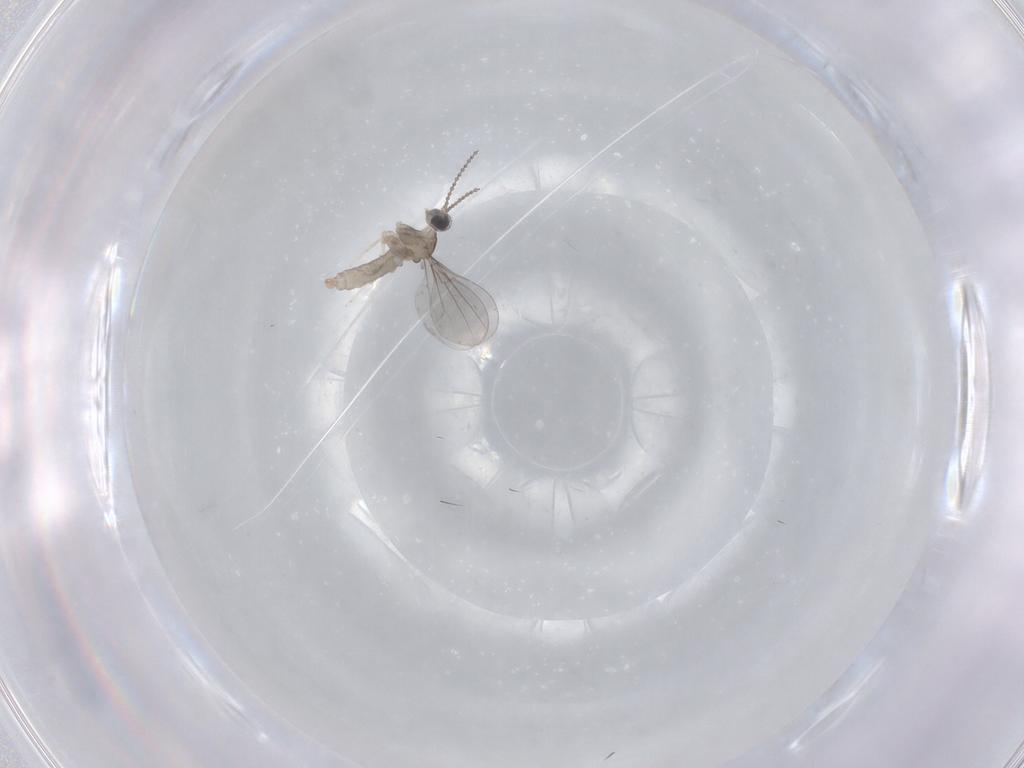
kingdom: Animalia
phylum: Arthropoda
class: Insecta
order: Diptera
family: Cecidomyiidae
